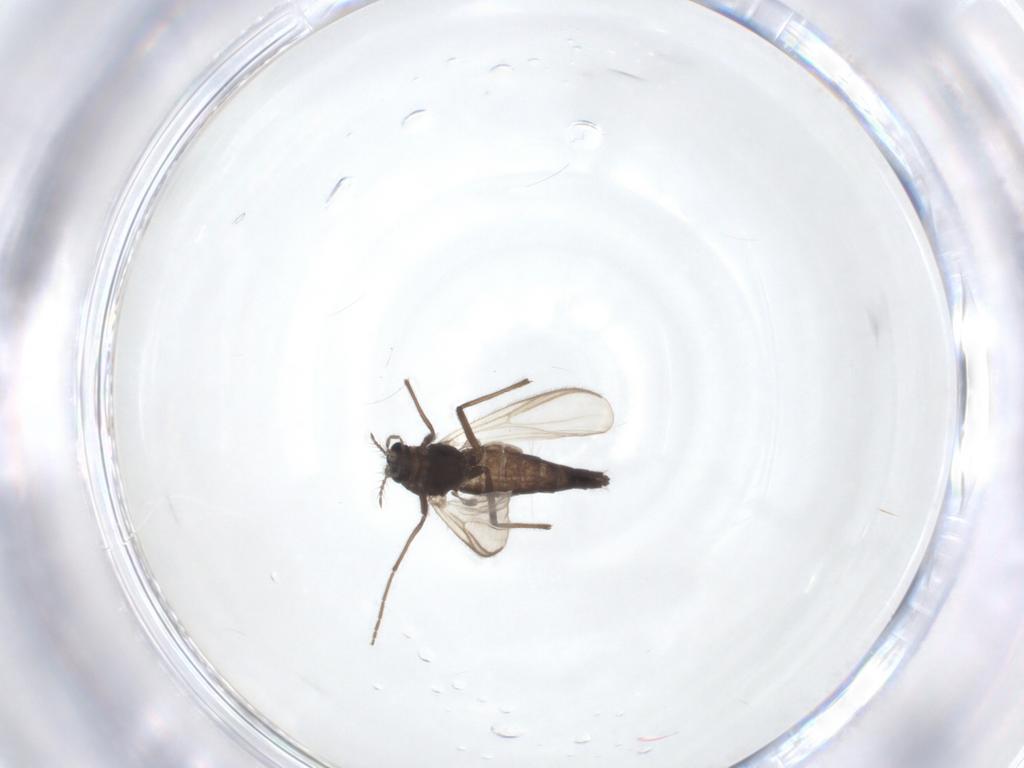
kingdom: Animalia
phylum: Arthropoda
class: Insecta
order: Diptera
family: Chironomidae
